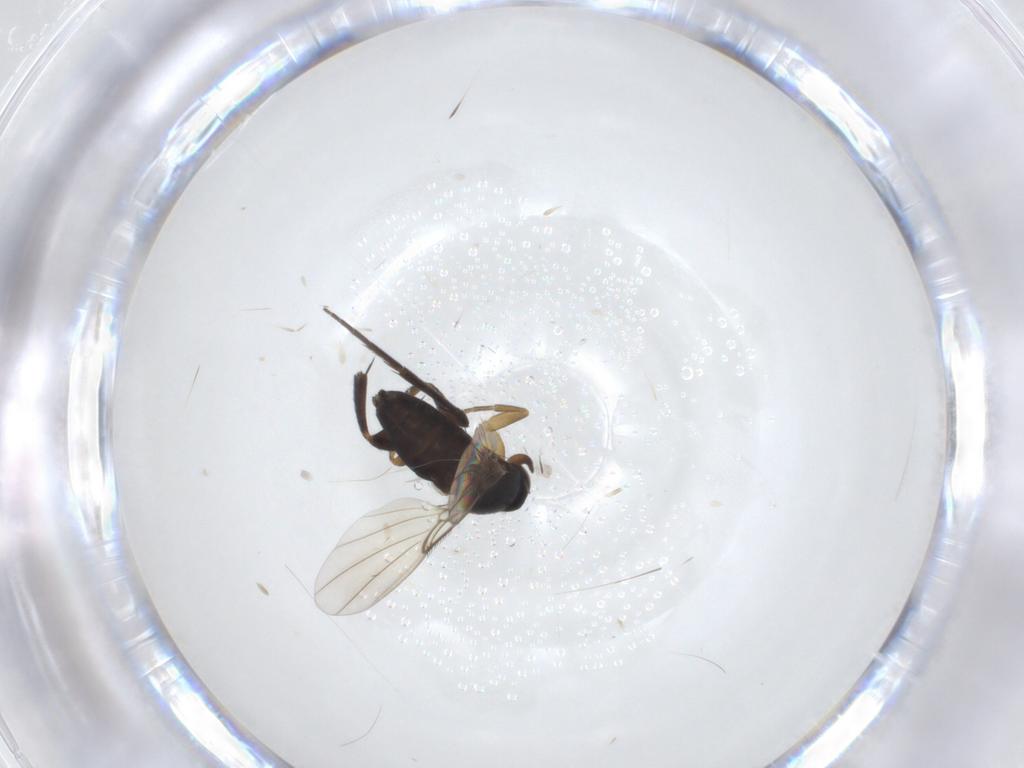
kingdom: Animalia
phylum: Arthropoda
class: Insecta
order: Diptera
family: Phoridae
